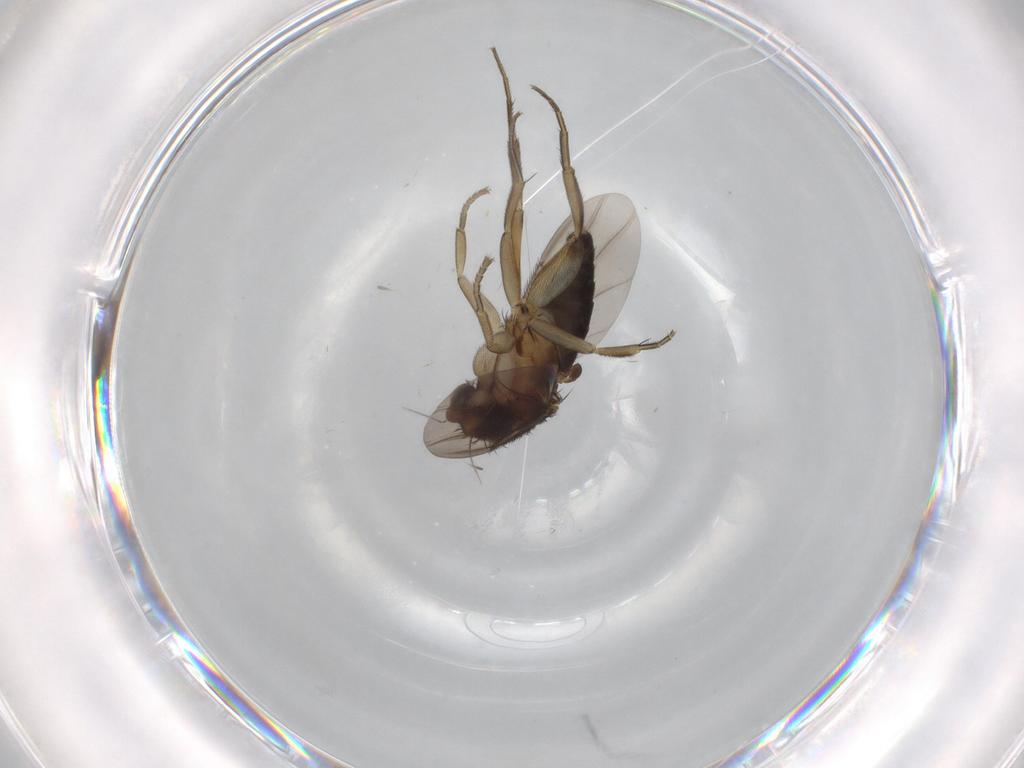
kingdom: Animalia
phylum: Arthropoda
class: Insecta
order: Diptera
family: Phoridae
